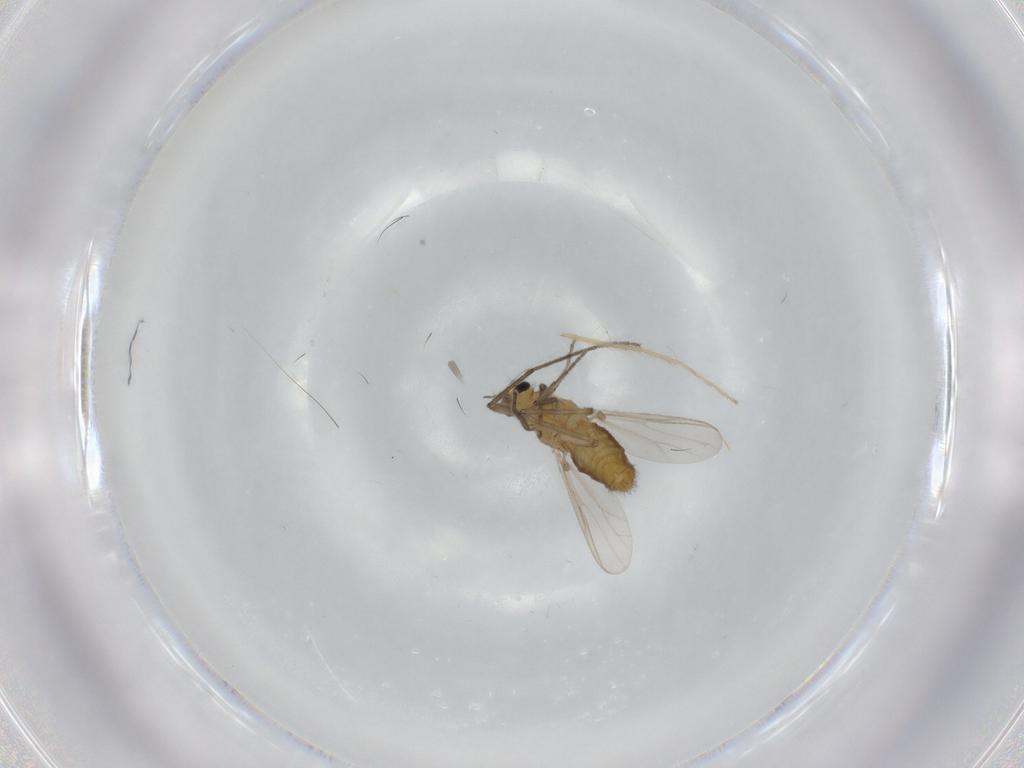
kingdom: Animalia
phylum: Arthropoda
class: Insecta
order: Diptera
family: Chironomidae
